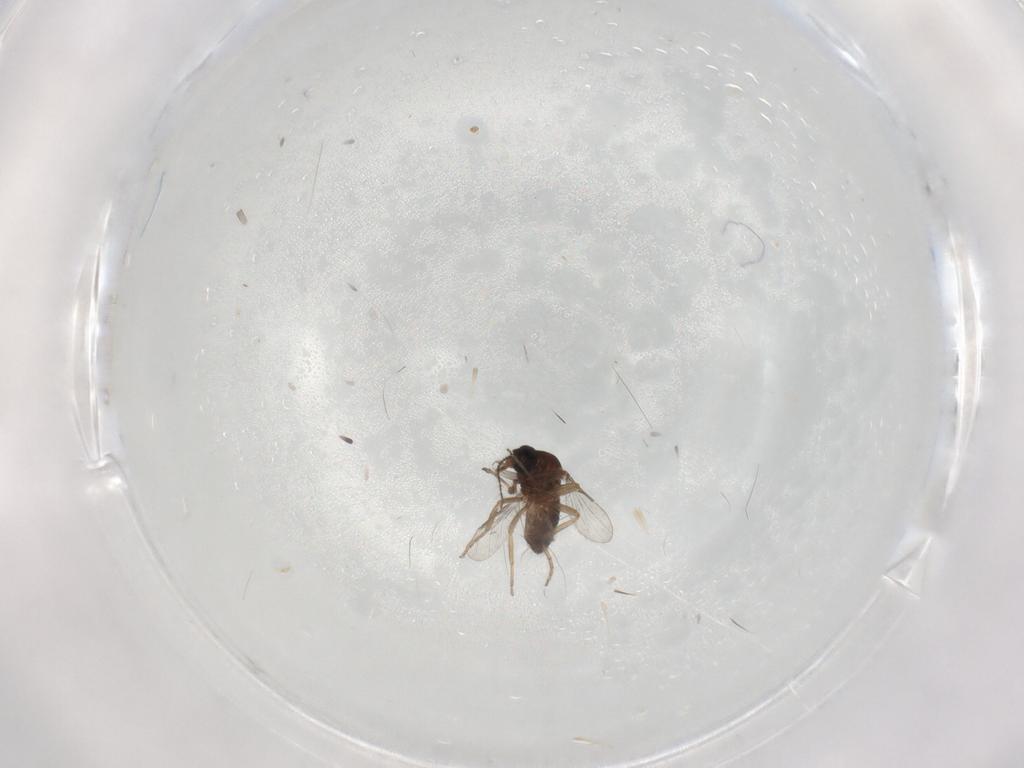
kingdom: Animalia
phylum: Arthropoda
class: Insecta
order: Diptera
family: Ceratopogonidae
